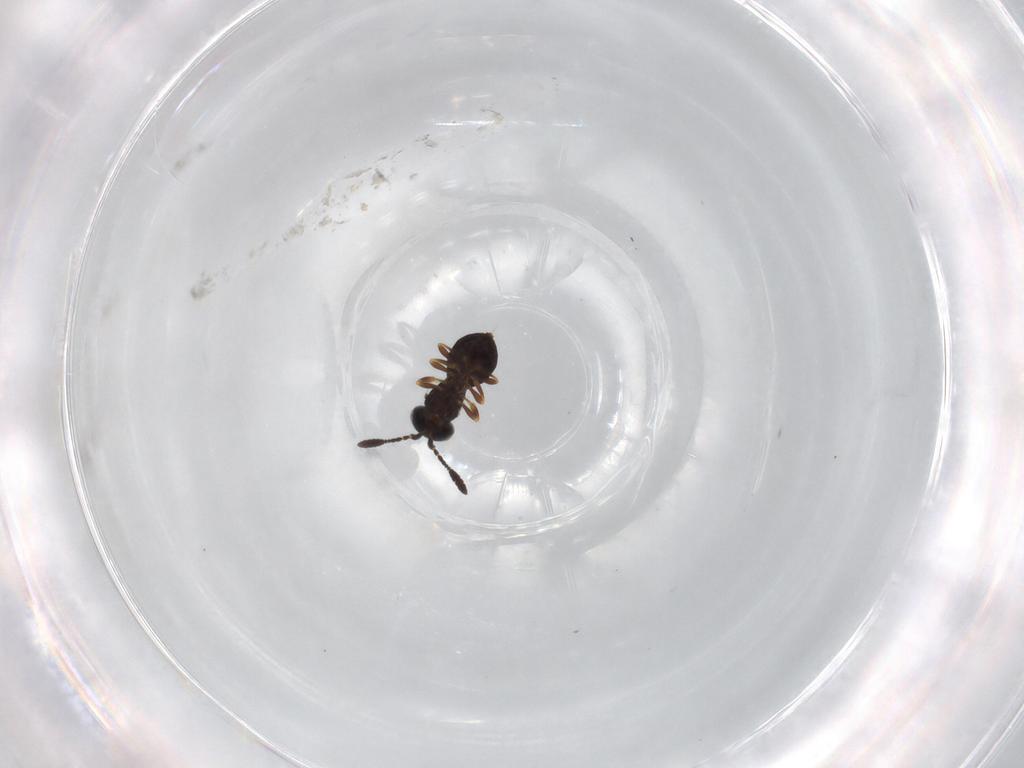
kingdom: Animalia
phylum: Arthropoda
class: Insecta
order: Hymenoptera
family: Scelionidae
